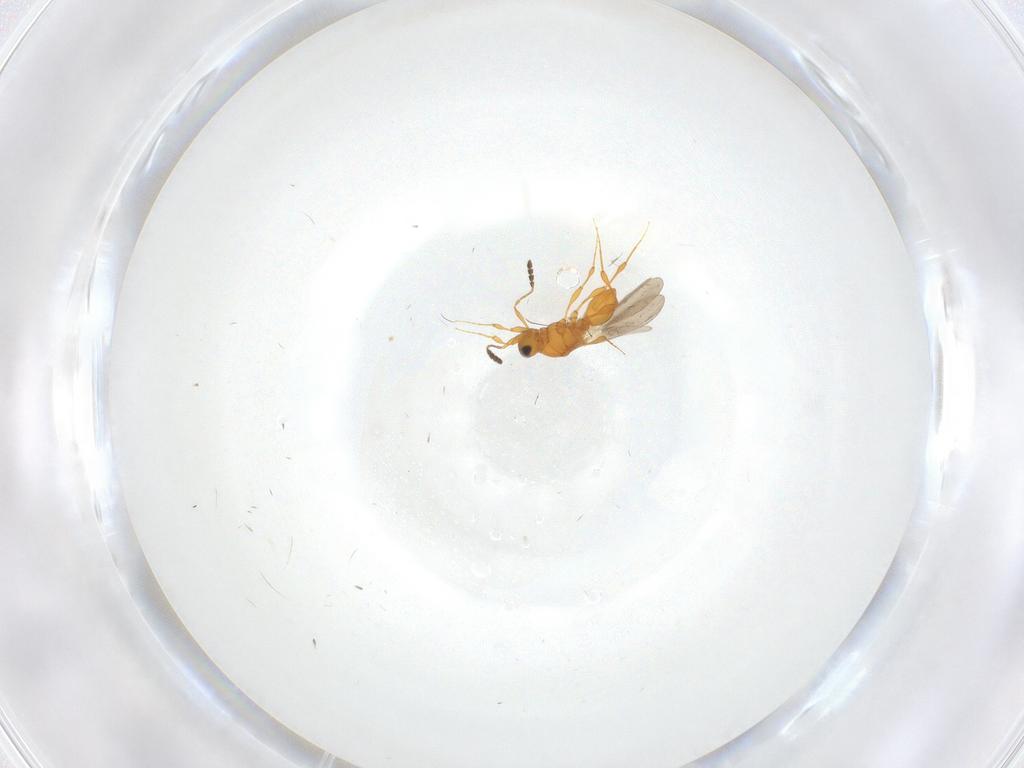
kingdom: Animalia
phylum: Arthropoda
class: Insecta
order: Hymenoptera
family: Platygastridae
